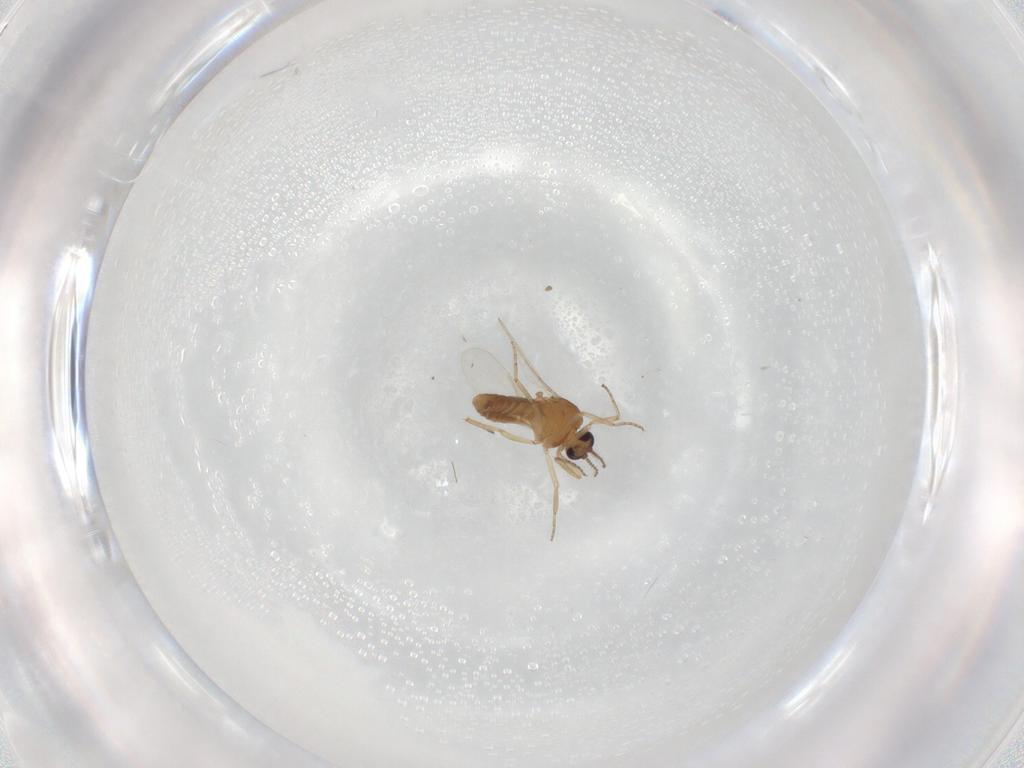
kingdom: Animalia
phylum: Arthropoda
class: Insecta
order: Diptera
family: Ceratopogonidae
